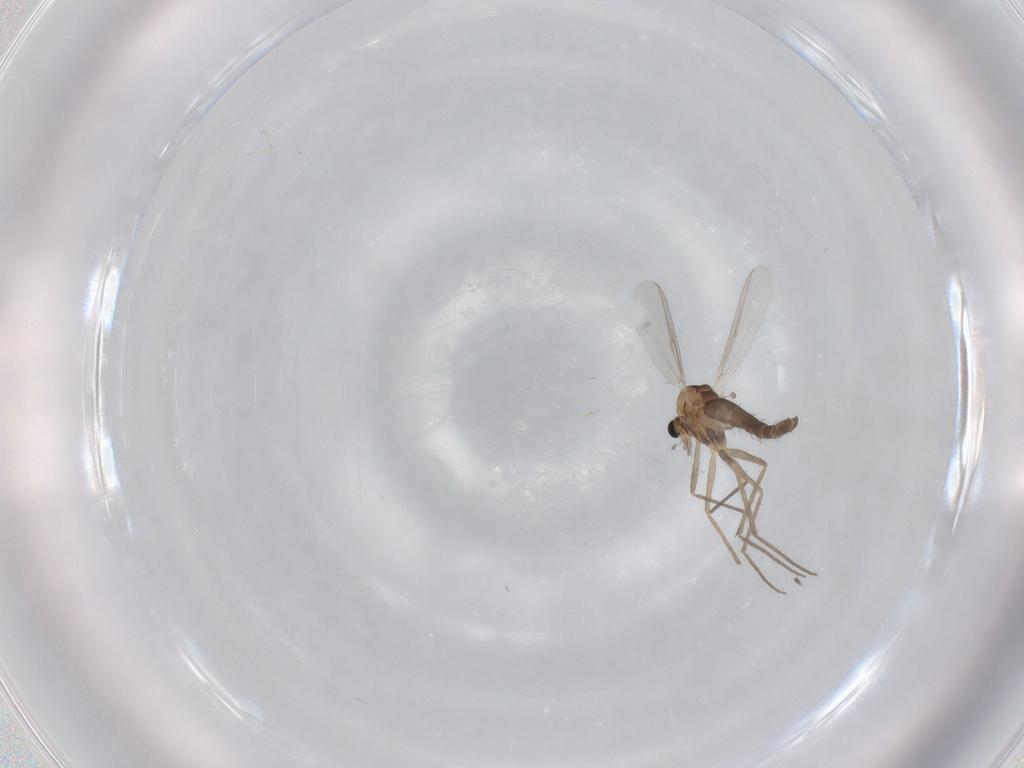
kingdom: Animalia
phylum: Arthropoda
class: Insecta
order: Diptera
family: Chironomidae
